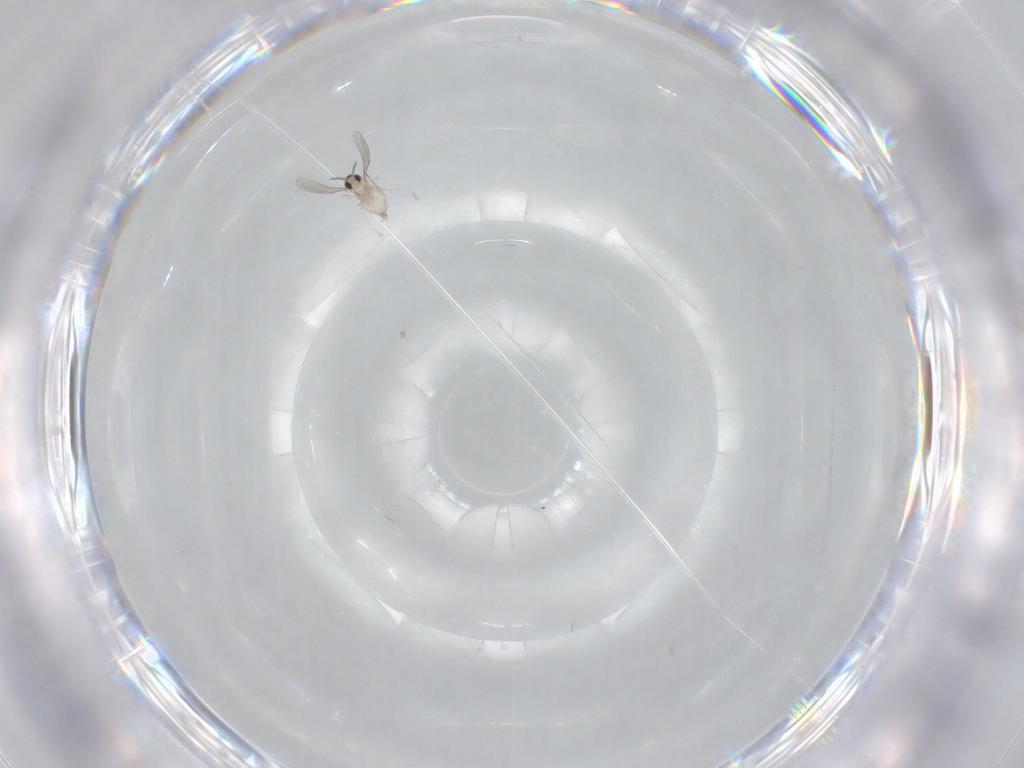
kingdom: Animalia
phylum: Arthropoda
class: Insecta
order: Diptera
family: Cecidomyiidae
